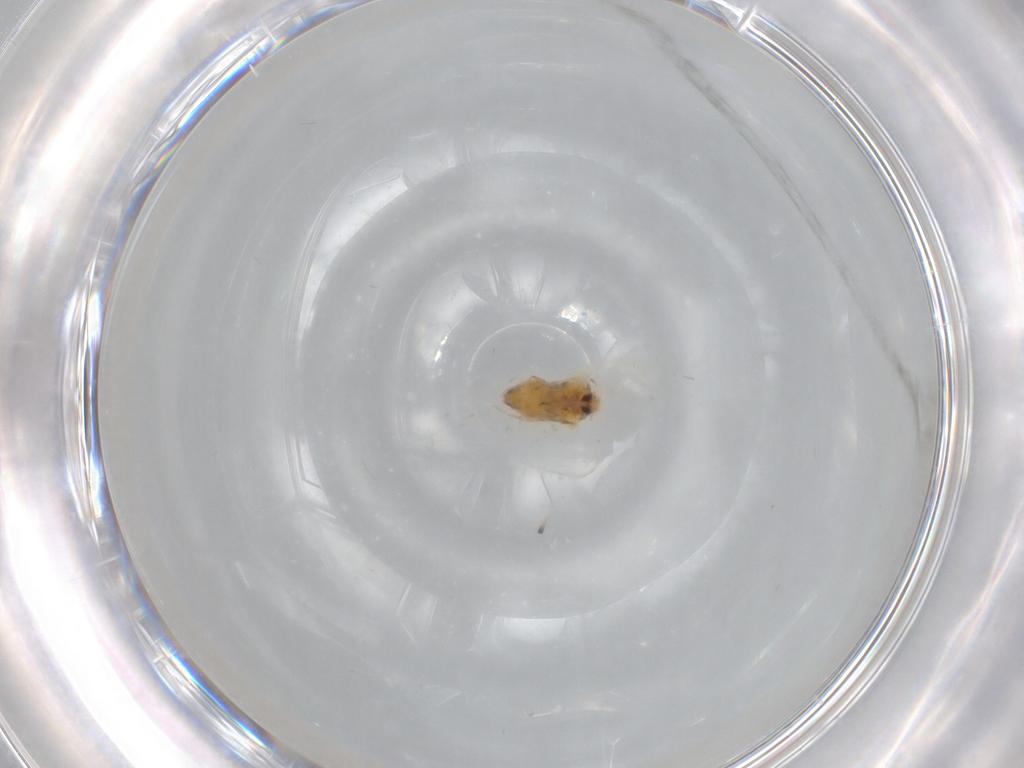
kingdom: Animalia
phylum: Arthropoda
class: Insecta
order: Hemiptera
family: Aleyrodidae
